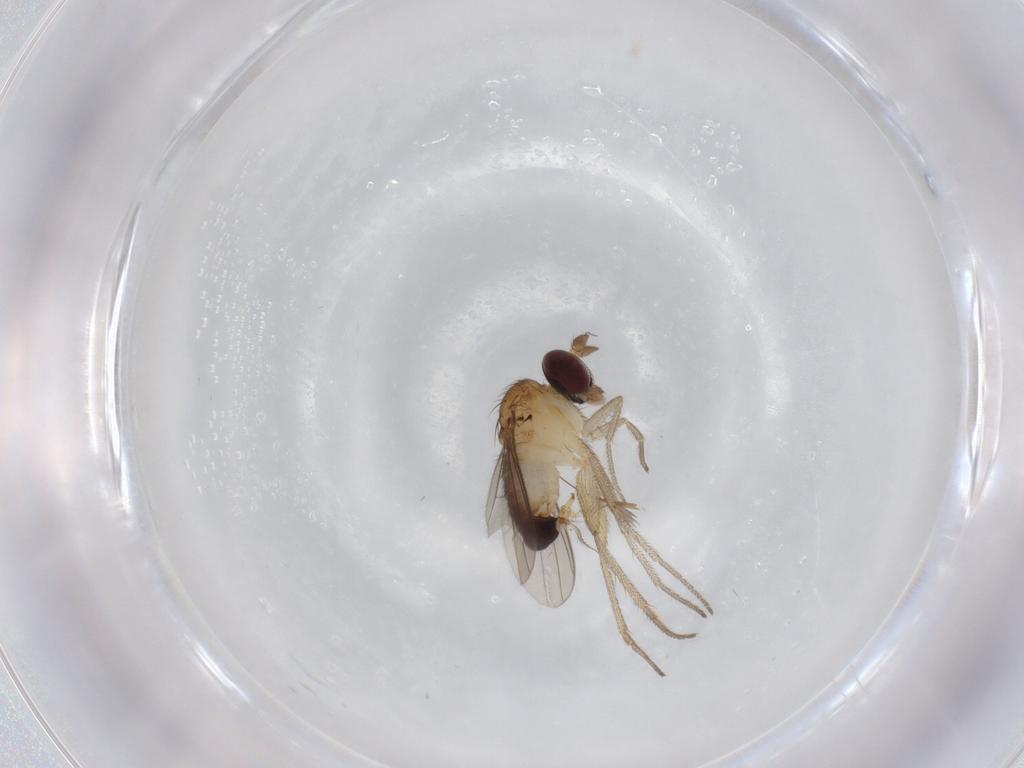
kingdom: Animalia
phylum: Arthropoda
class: Insecta
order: Diptera
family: Dolichopodidae
